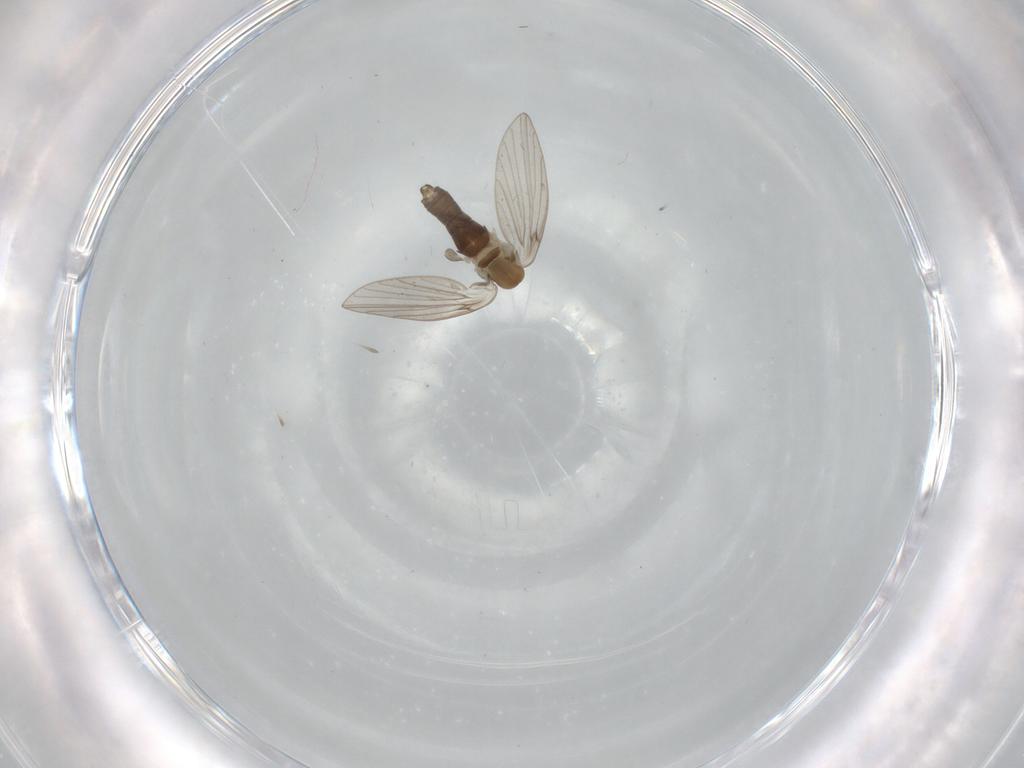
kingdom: Animalia
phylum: Arthropoda
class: Insecta
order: Diptera
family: Psychodidae
